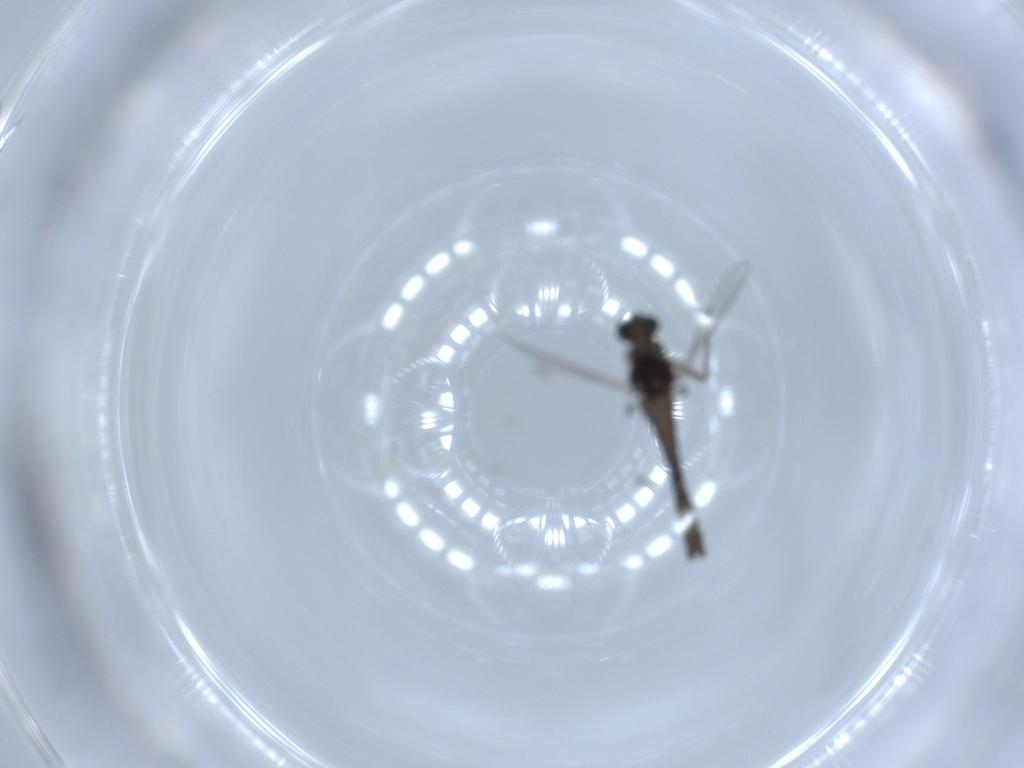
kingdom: Animalia
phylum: Arthropoda
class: Insecta
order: Diptera
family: Chironomidae
